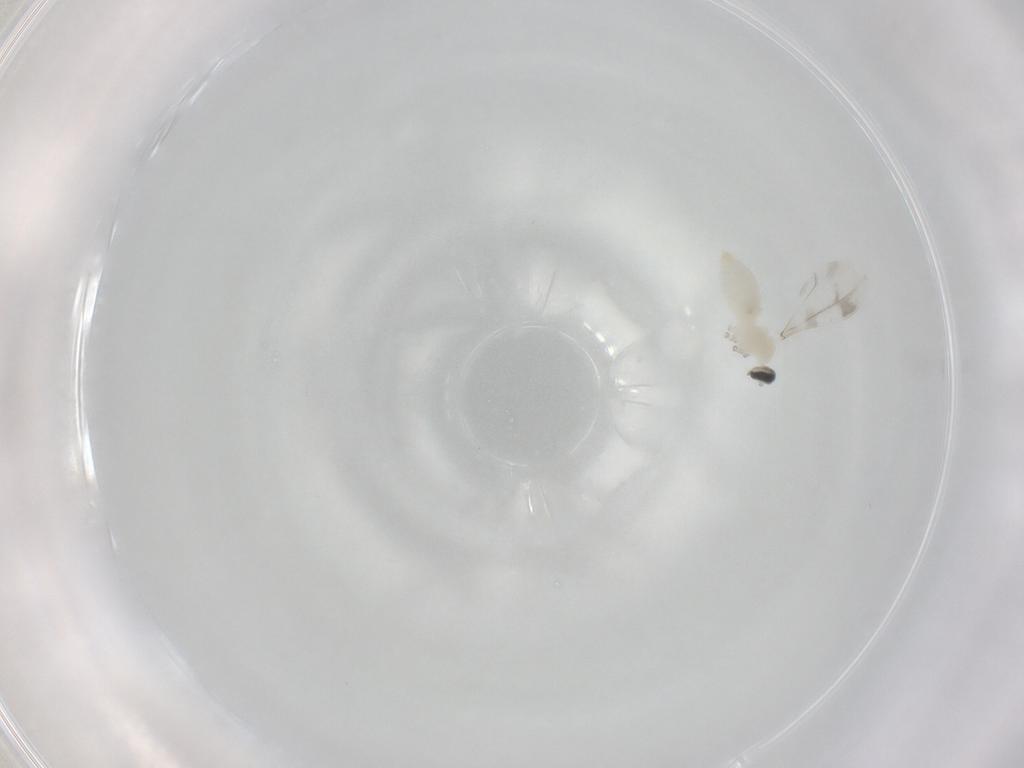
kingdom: Animalia
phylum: Arthropoda
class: Insecta
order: Diptera
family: Cecidomyiidae
